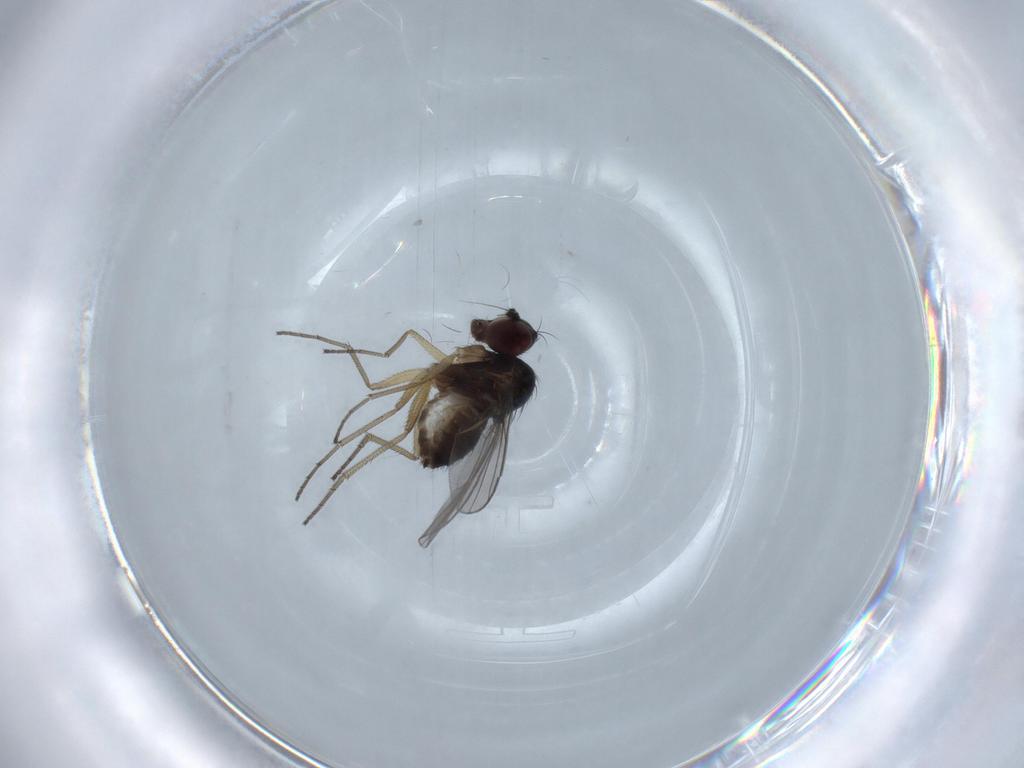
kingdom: Animalia
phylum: Arthropoda
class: Insecta
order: Diptera
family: Dolichopodidae
